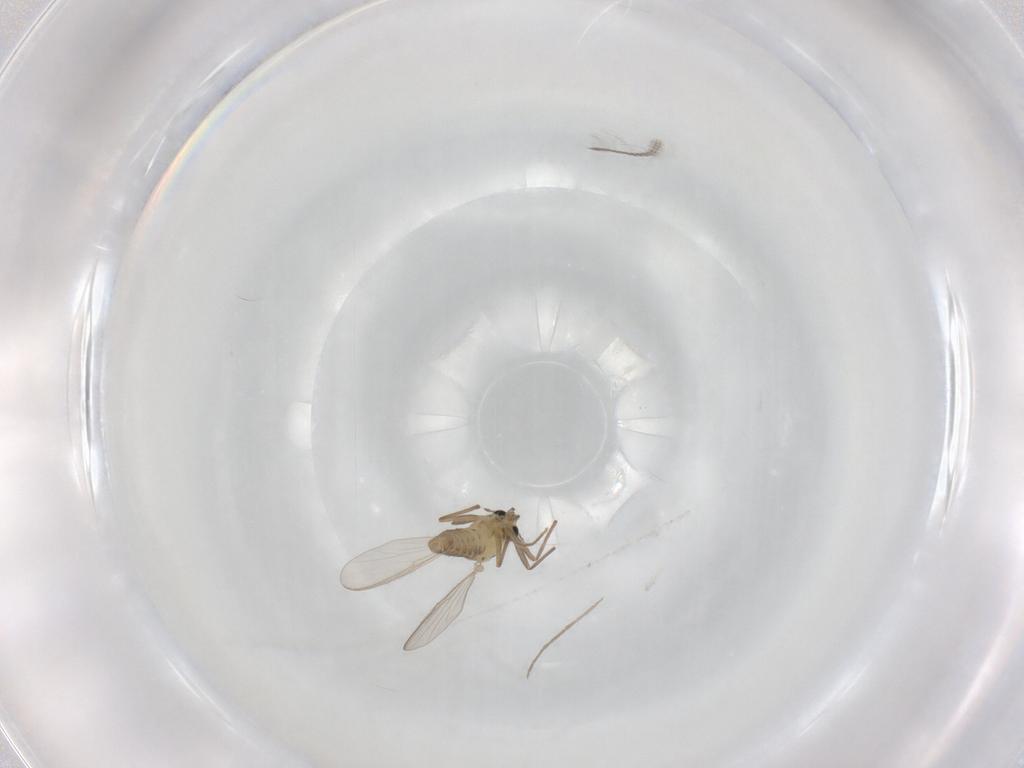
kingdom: Animalia
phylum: Arthropoda
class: Insecta
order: Diptera
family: Chironomidae
